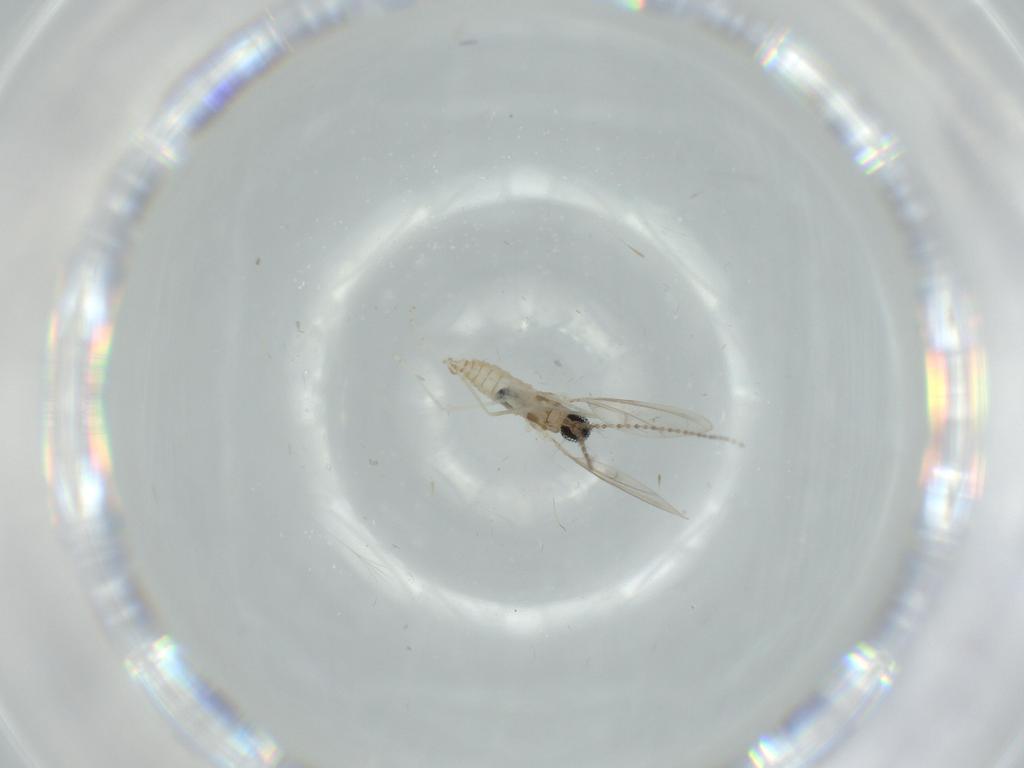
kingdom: Animalia
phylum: Arthropoda
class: Insecta
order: Diptera
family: Cecidomyiidae
